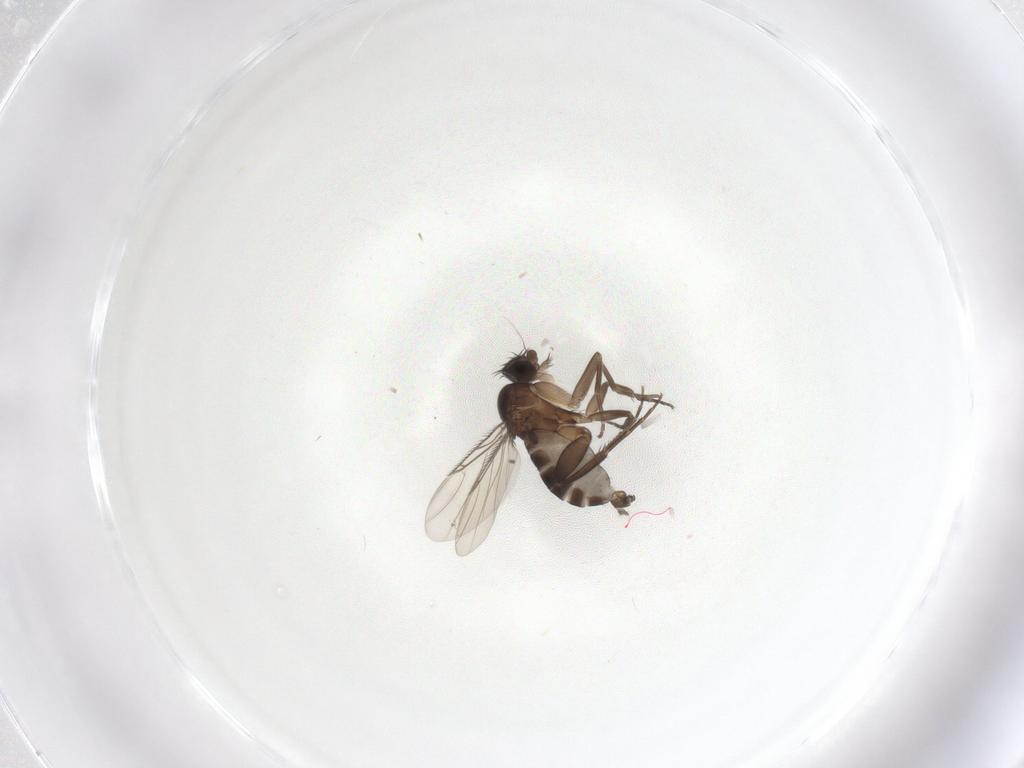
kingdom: Animalia
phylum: Arthropoda
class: Insecta
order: Diptera
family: Phoridae
